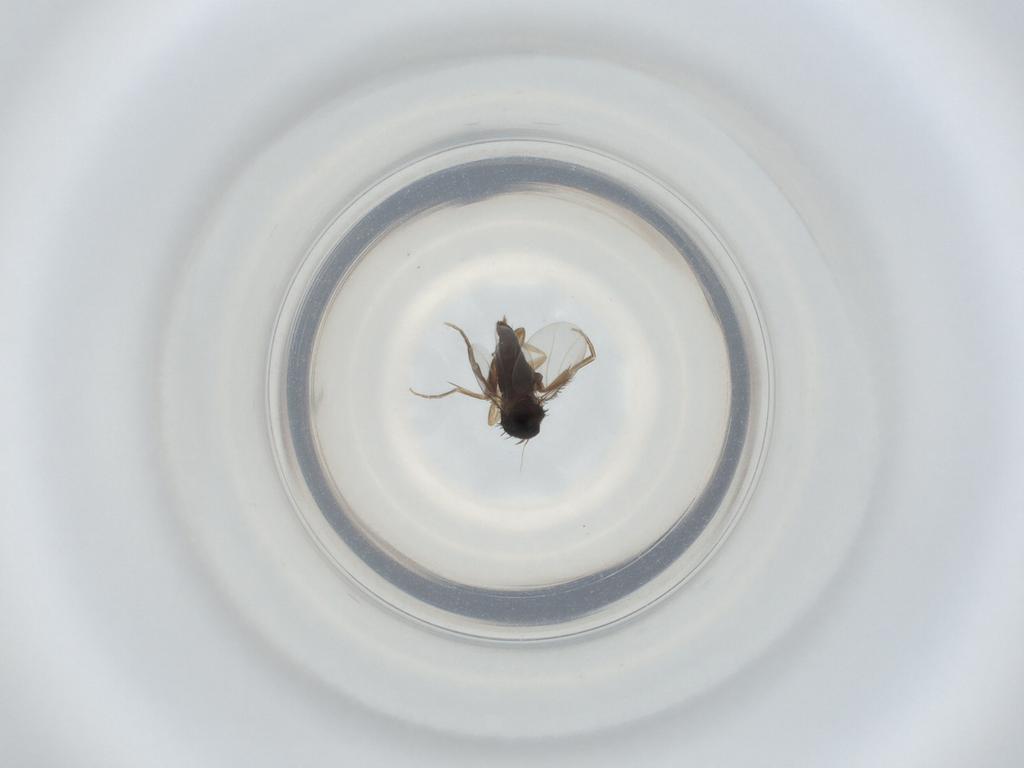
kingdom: Animalia
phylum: Arthropoda
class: Insecta
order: Diptera
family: Phoridae
